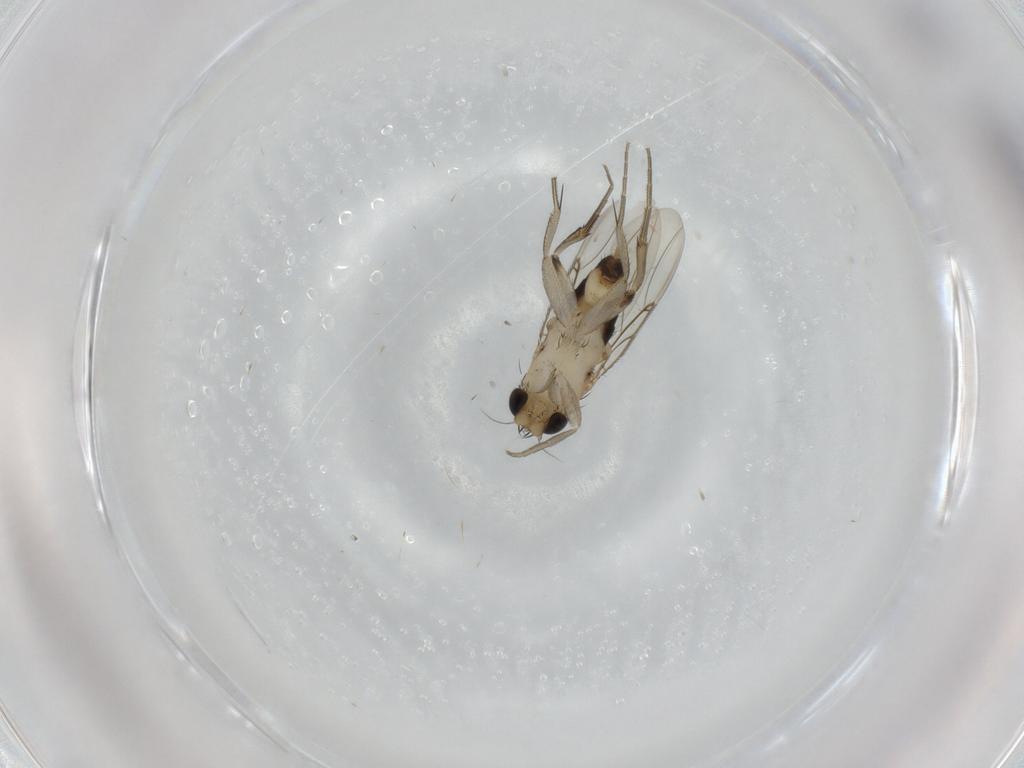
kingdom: Animalia
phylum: Arthropoda
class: Insecta
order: Diptera
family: Phoridae
